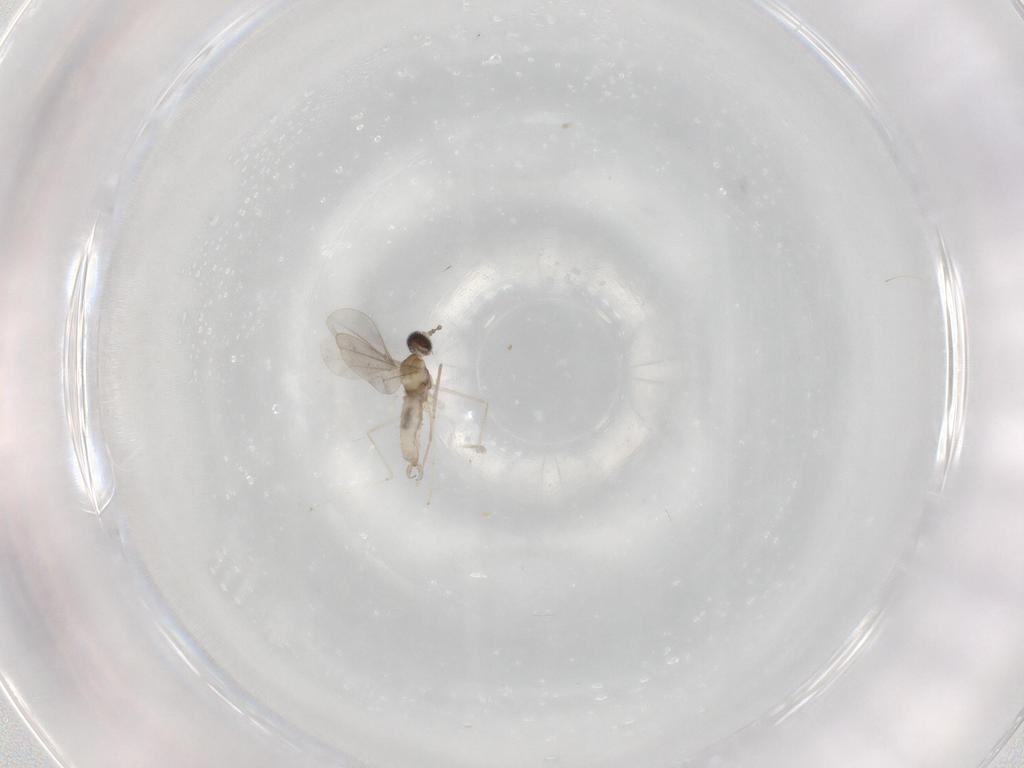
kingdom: Animalia
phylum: Arthropoda
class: Insecta
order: Diptera
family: Cecidomyiidae
